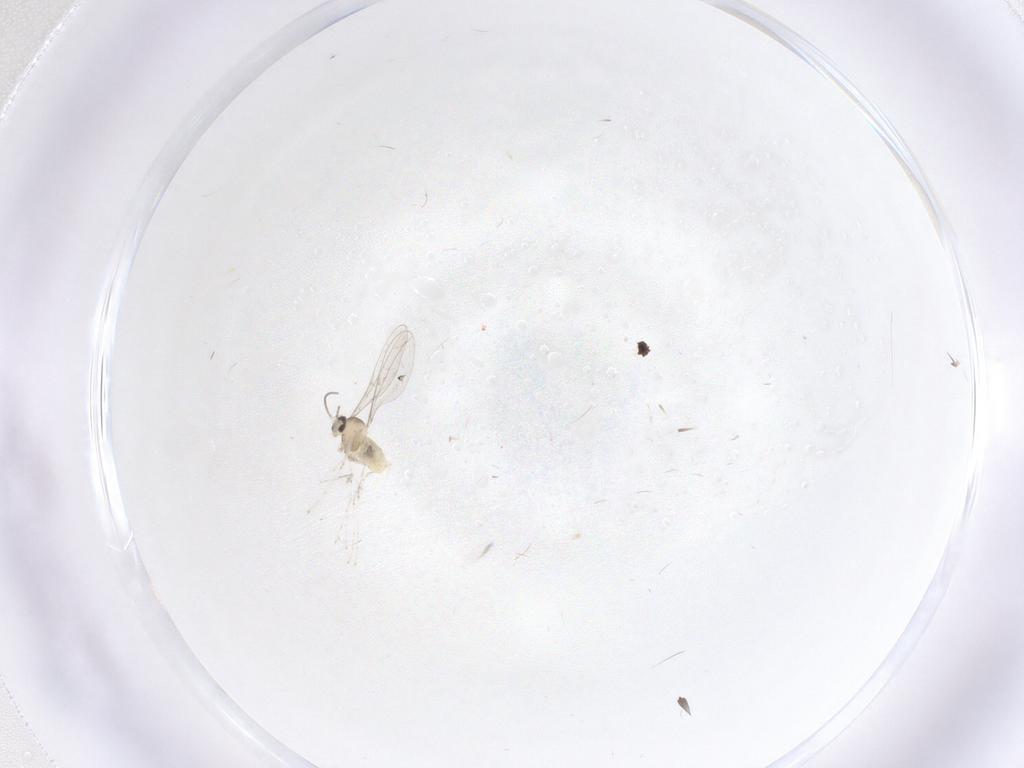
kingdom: Animalia
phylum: Arthropoda
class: Insecta
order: Diptera
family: Cecidomyiidae
